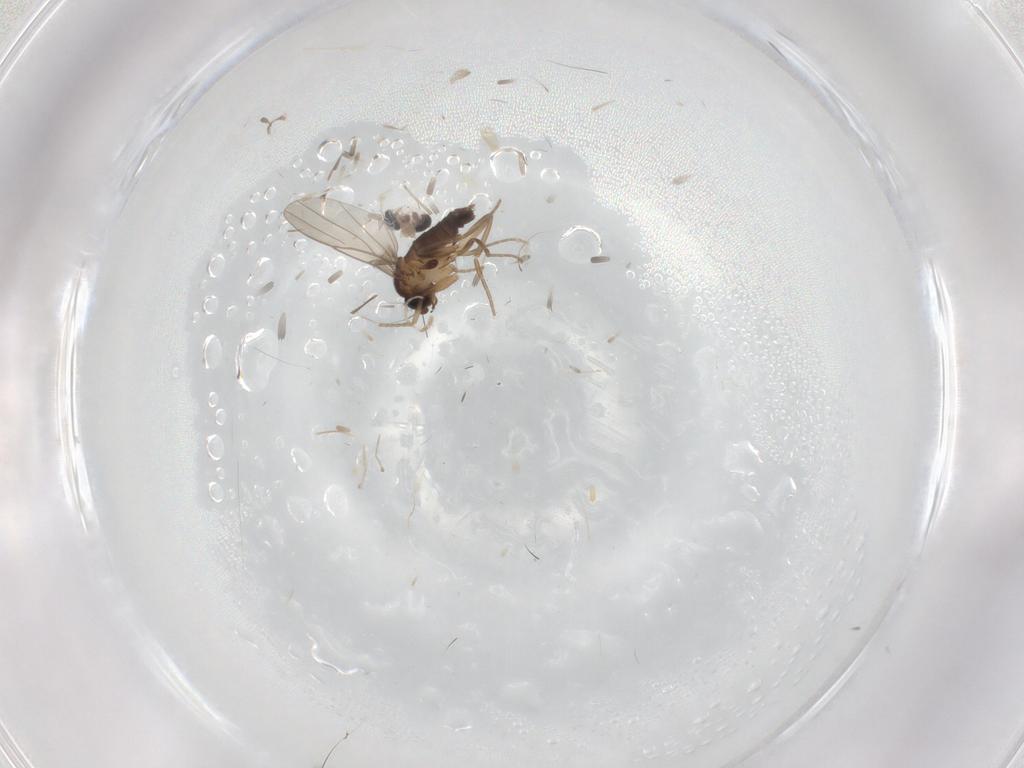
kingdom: Animalia
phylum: Arthropoda
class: Insecta
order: Diptera
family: Phoridae
